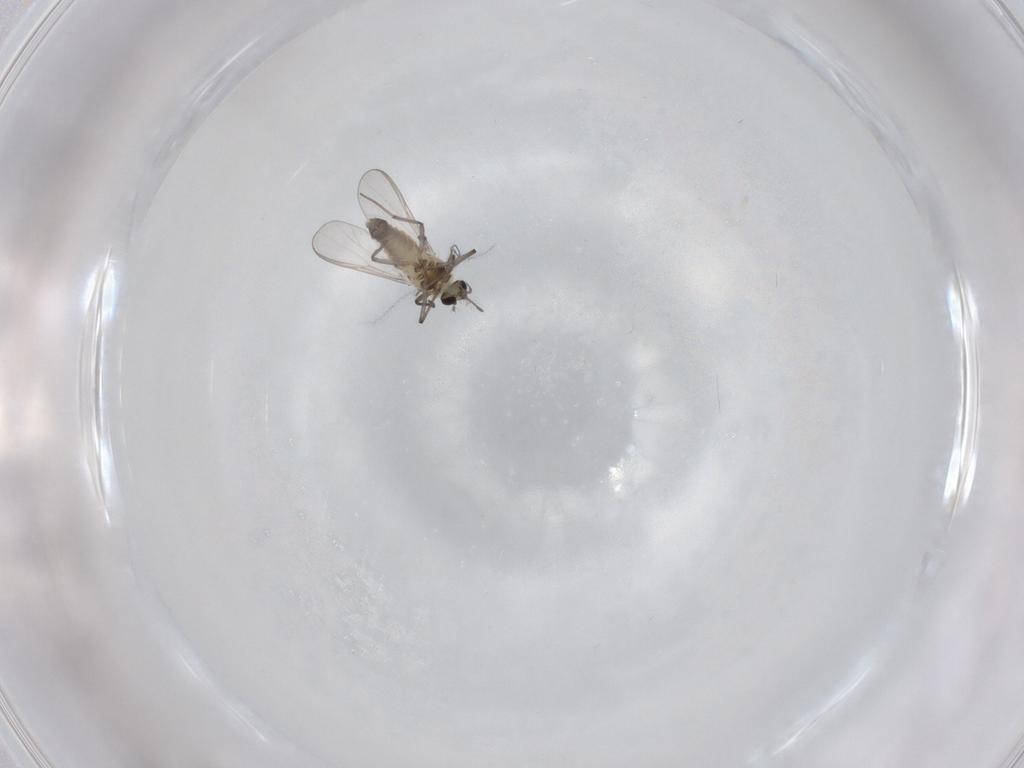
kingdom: Animalia
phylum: Arthropoda
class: Insecta
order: Diptera
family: Chironomidae
